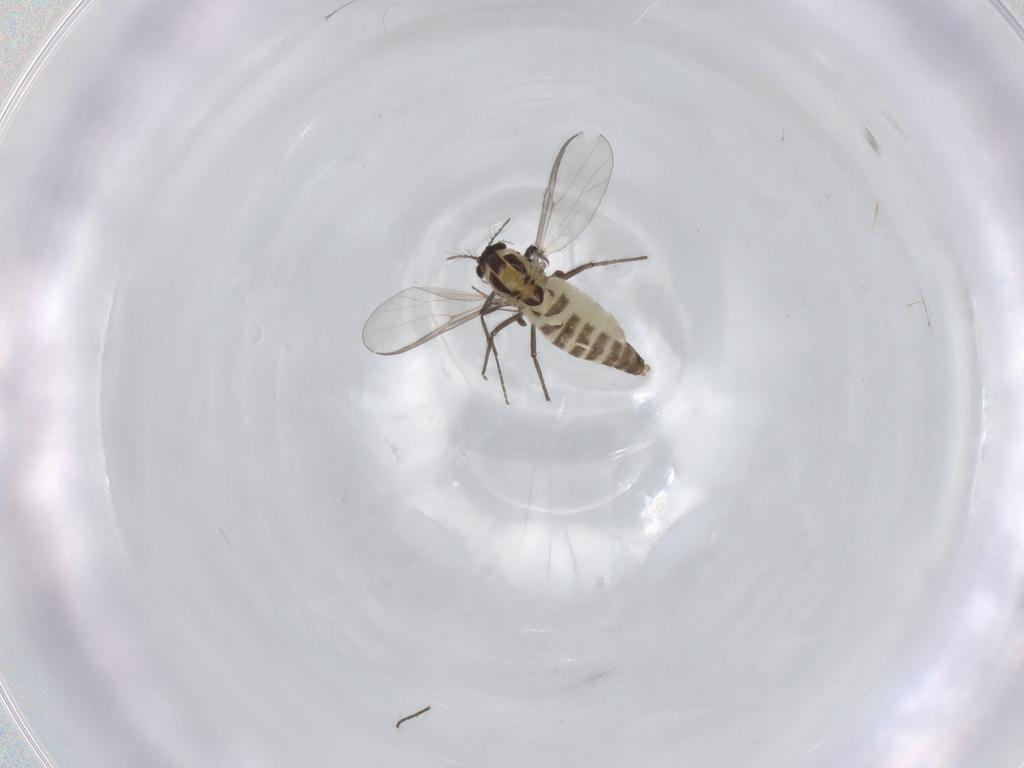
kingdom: Animalia
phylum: Arthropoda
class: Insecta
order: Diptera
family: Chironomidae
